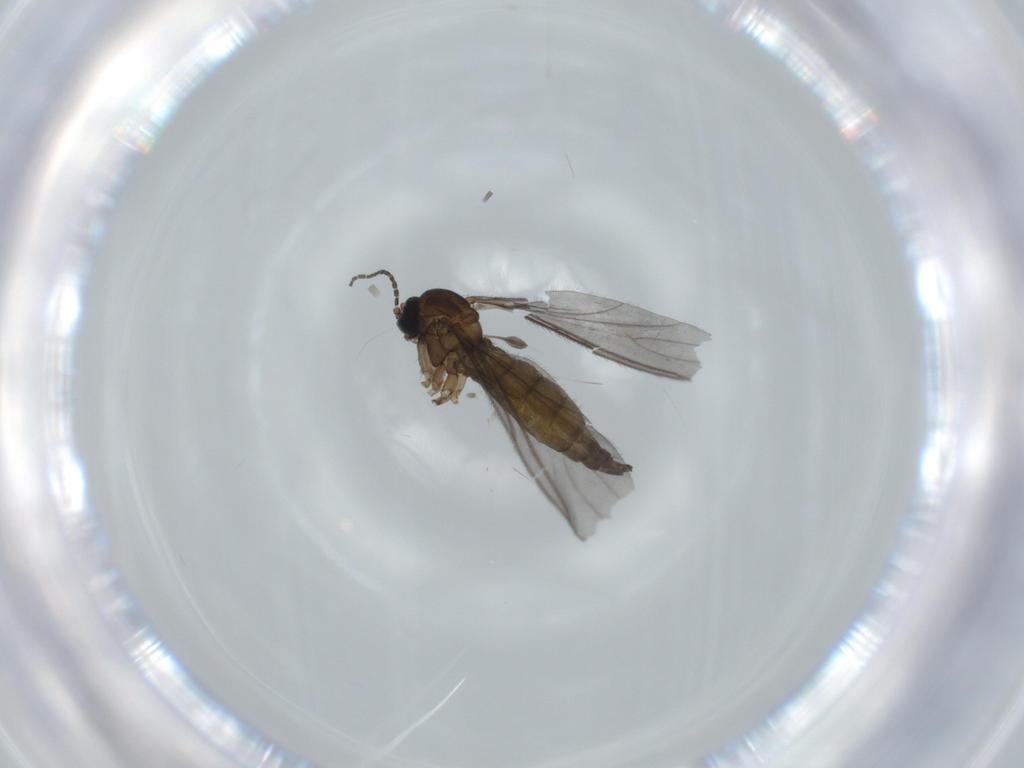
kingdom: Animalia
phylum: Arthropoda
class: Insecta
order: Diptera
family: Sciaridae
